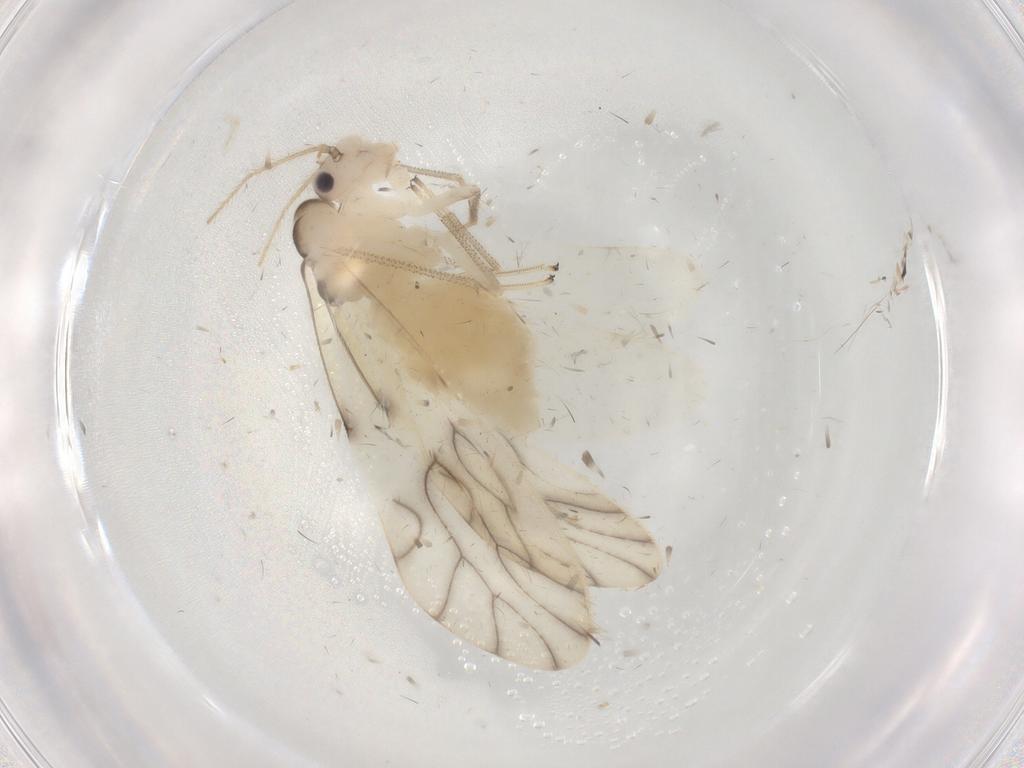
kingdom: Animalia
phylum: Arthropoda
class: Insecta
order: Psocodea
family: Caeciliusidae
